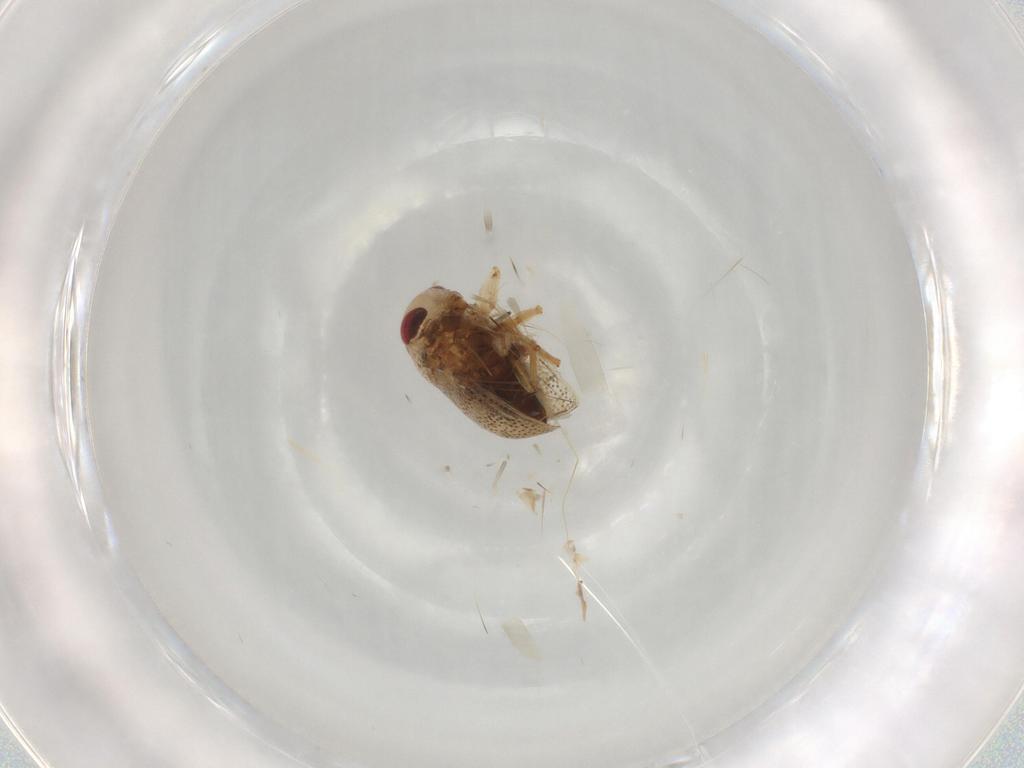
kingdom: Animalia
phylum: Arthropoda
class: Insecta
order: Hemiptera
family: Pleidae
